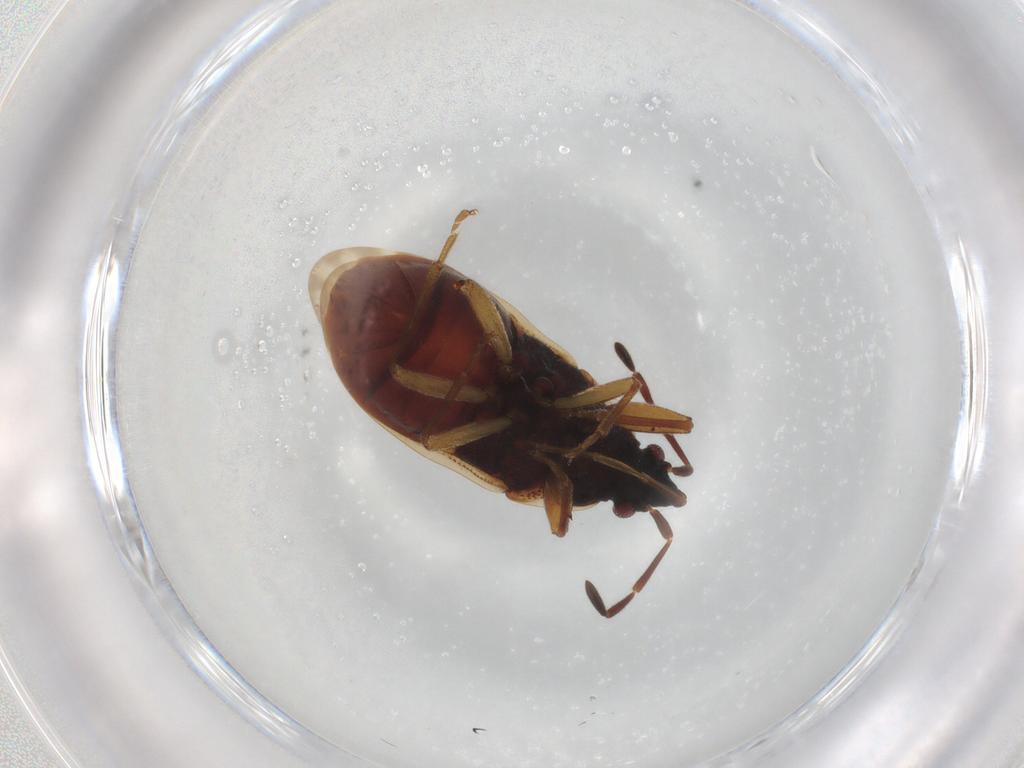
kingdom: Animalia
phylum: Arthropoda
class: Insecta
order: Hemiptera
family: Rhyparochromidae
